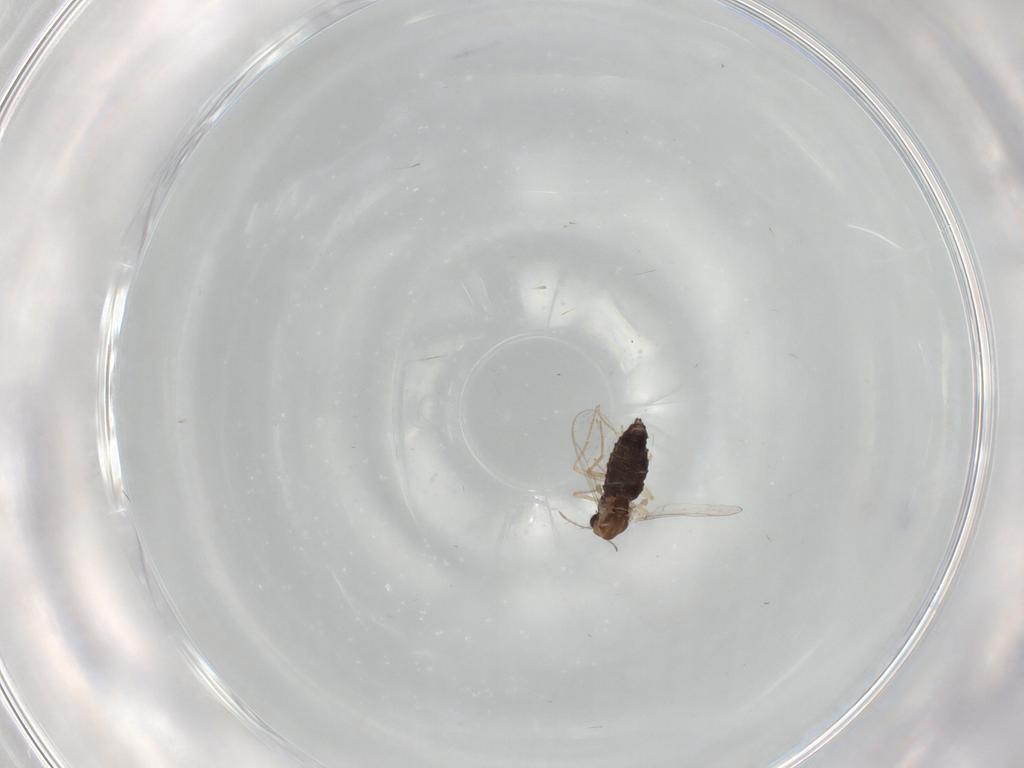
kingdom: Animalia
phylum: Arthropoda
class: Insecta
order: Diptera
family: Chironomidae
